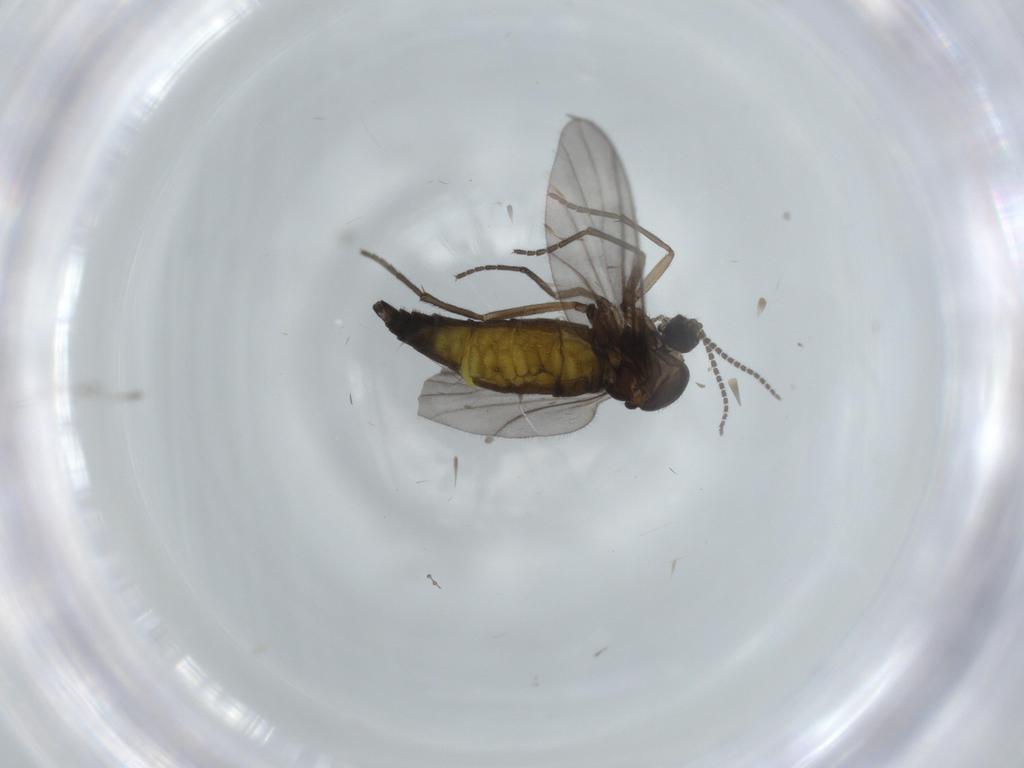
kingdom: Animalia
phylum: Arthropoda
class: Insecta
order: Diptera
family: Sciaridae
